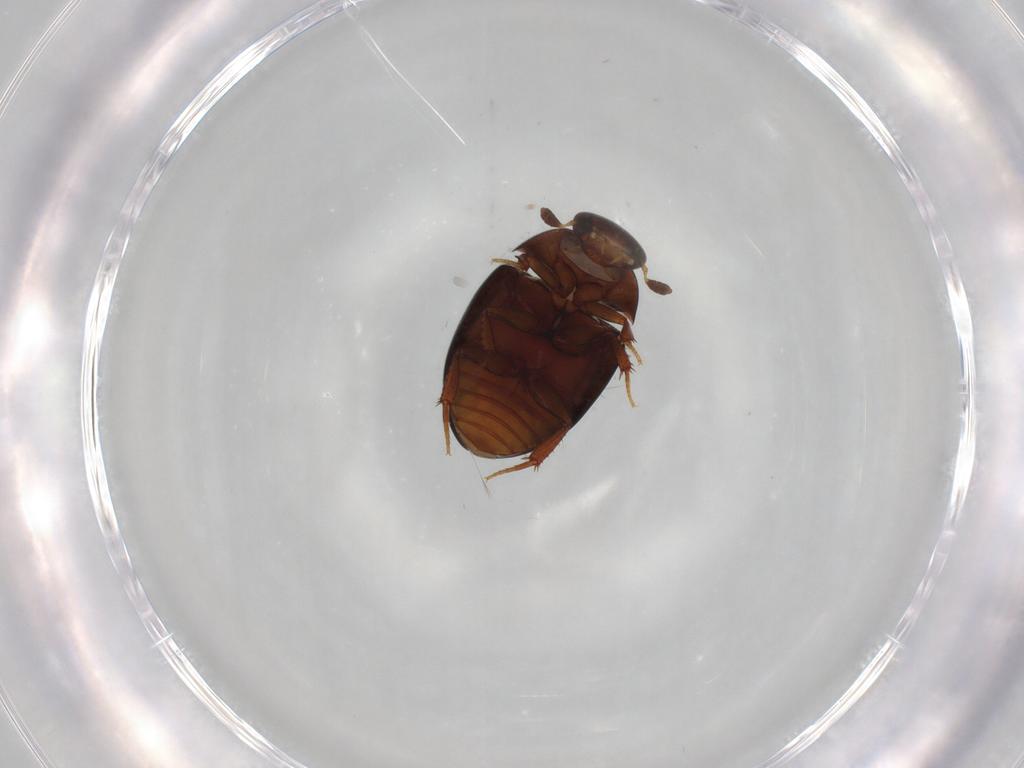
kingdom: Animalia
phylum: Arthropoda
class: Insecta
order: Coleoptera
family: Hydrophilidae
